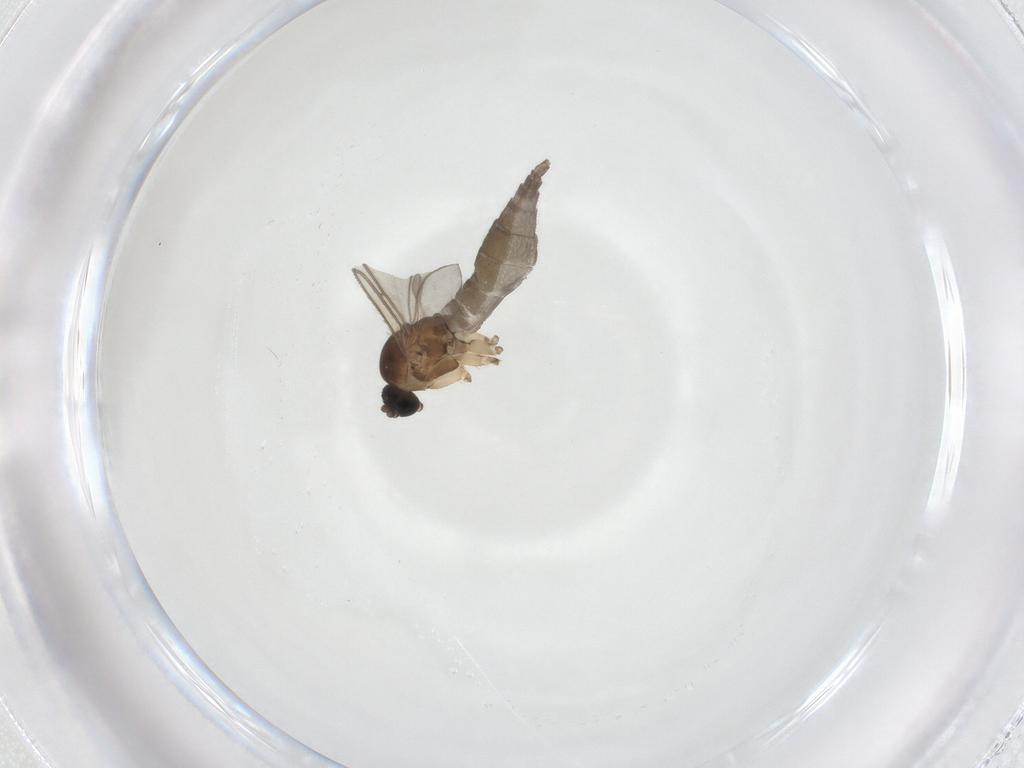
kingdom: Animalia
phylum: Arthropoda
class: Insecta
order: Diptera
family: Sciaridae
